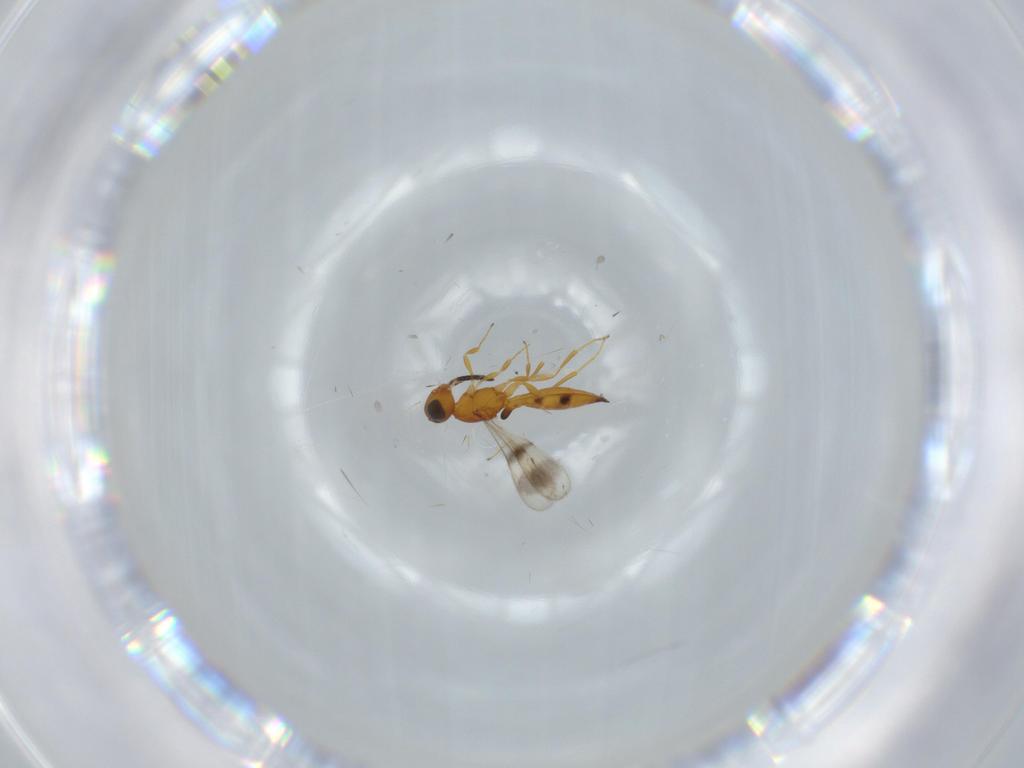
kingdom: Animalia
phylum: Arthropoda
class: Insecta
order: Hymenoptera
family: Scelionidae
